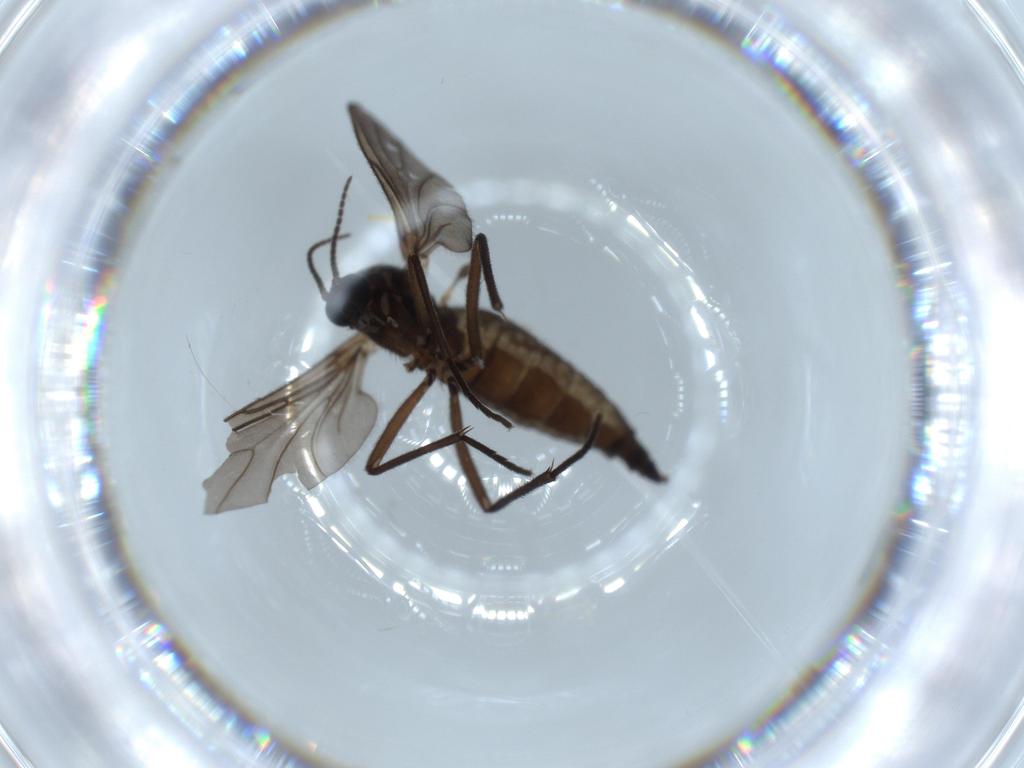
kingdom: Animalia
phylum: Arthropoda
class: Insecta
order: Diptera
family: Sciaridae
